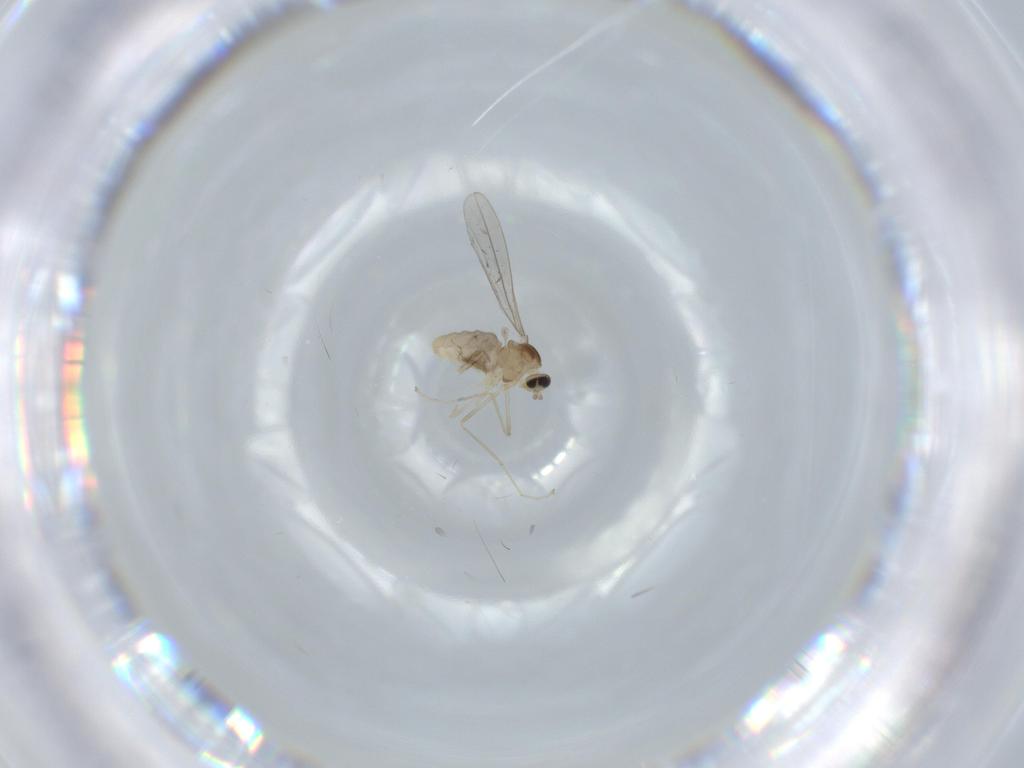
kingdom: Animalia
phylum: Arthropoda
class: Insecta
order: Diptera
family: Cecidomyiidae
